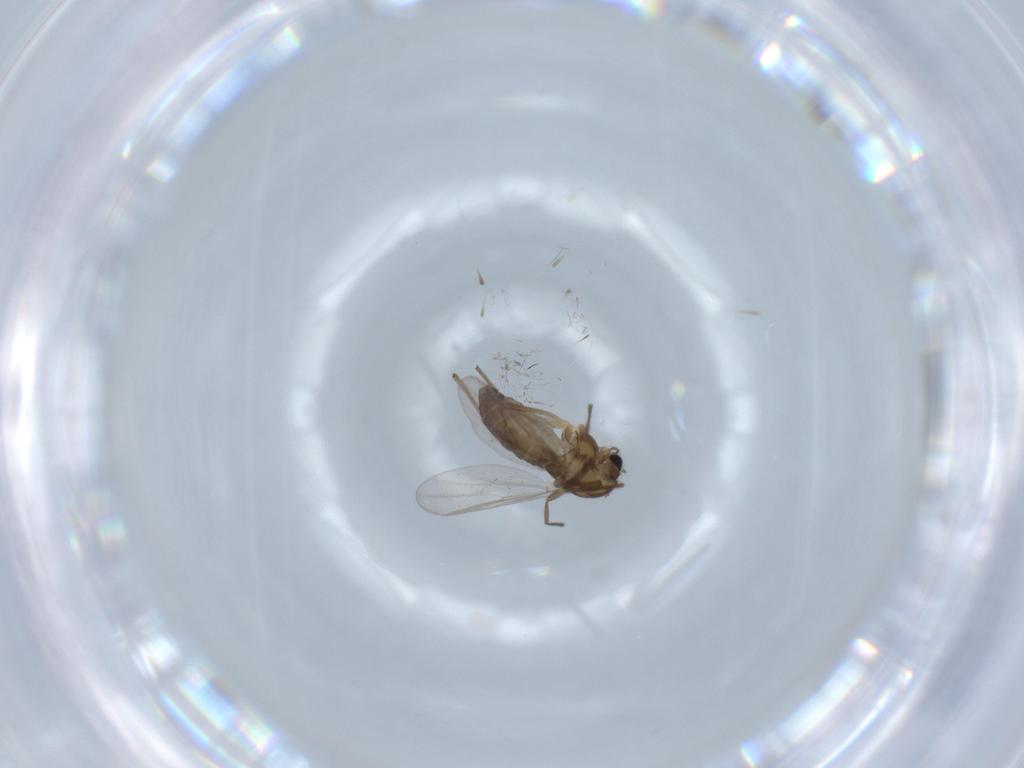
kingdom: Animalia
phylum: Arthropoda
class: Insecta
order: Diptera
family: Chironomidae
